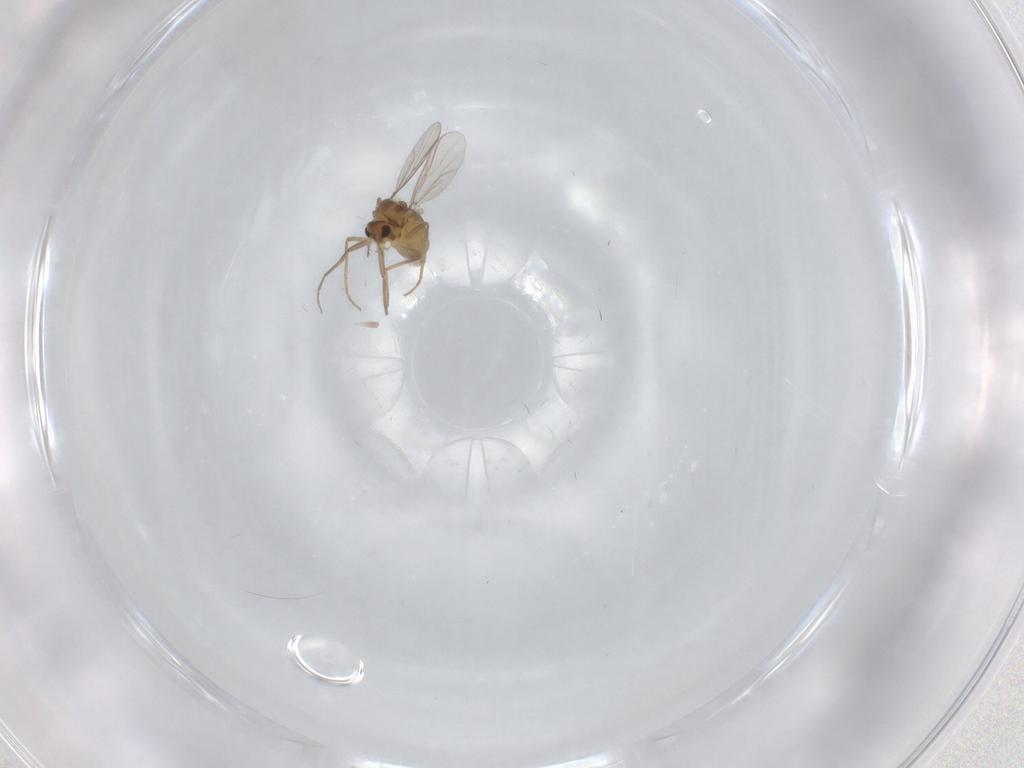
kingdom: Animalia
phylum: Arthropoda
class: Insecta
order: Diptera
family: Chironomidae
